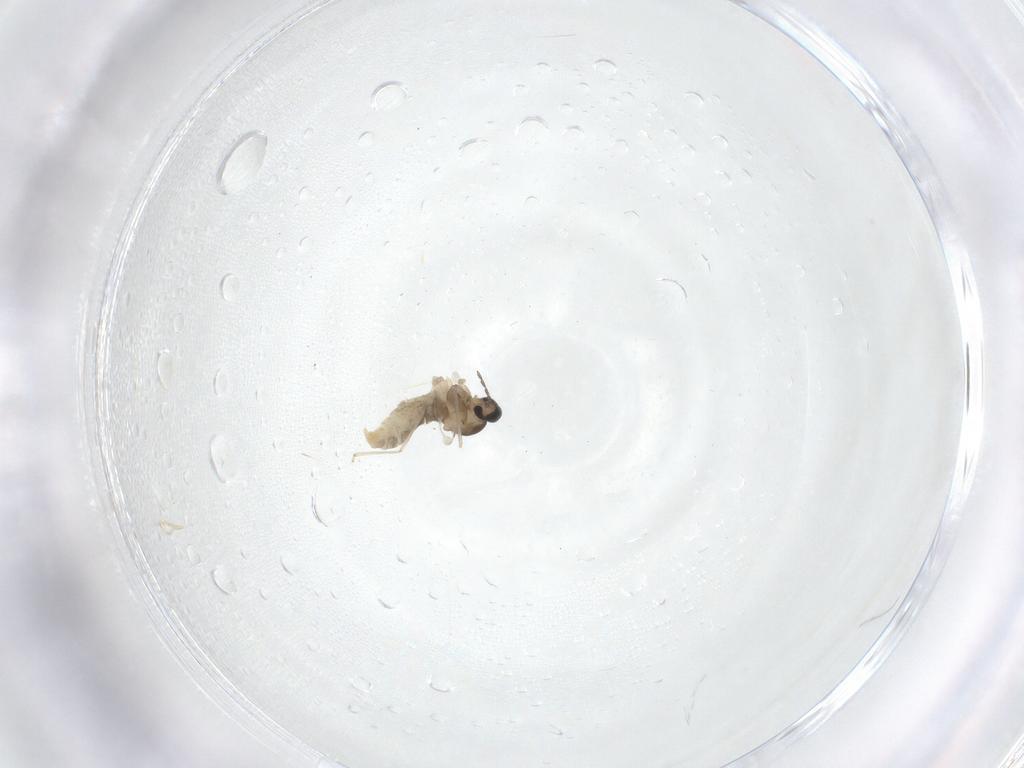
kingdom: Animalia
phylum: Arthropoda
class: Insecta
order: Diptera
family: Cecidomyiidae
